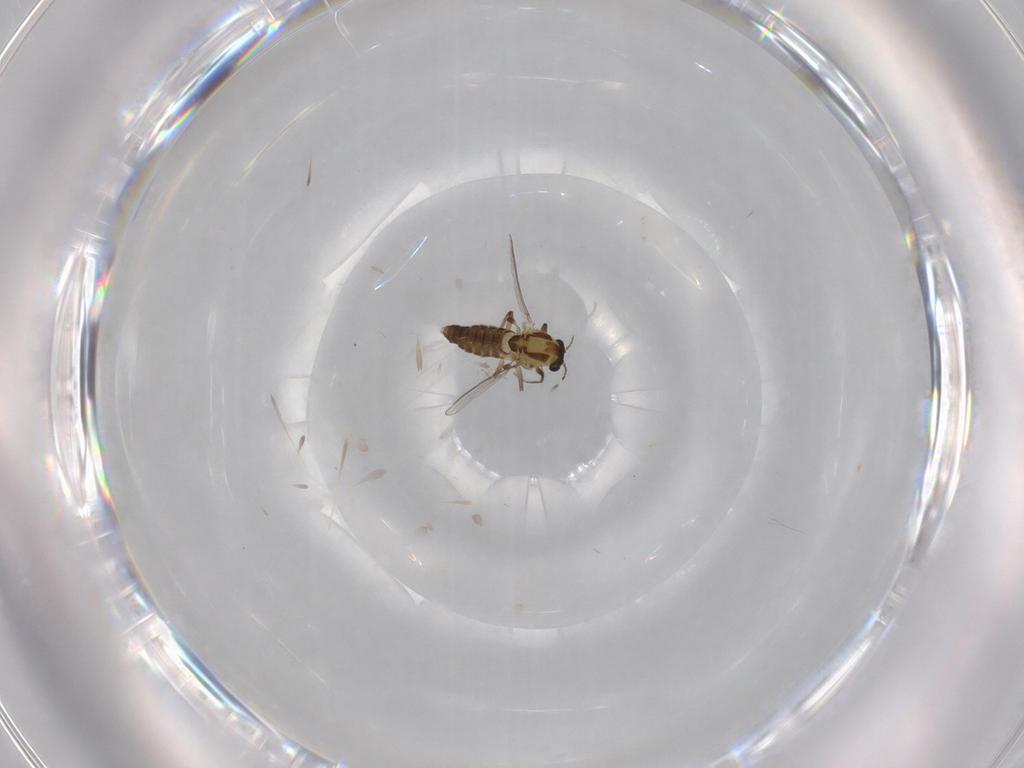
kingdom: Animalia
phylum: Arthropoda
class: Insecta
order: Diptera
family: Chironomidae
